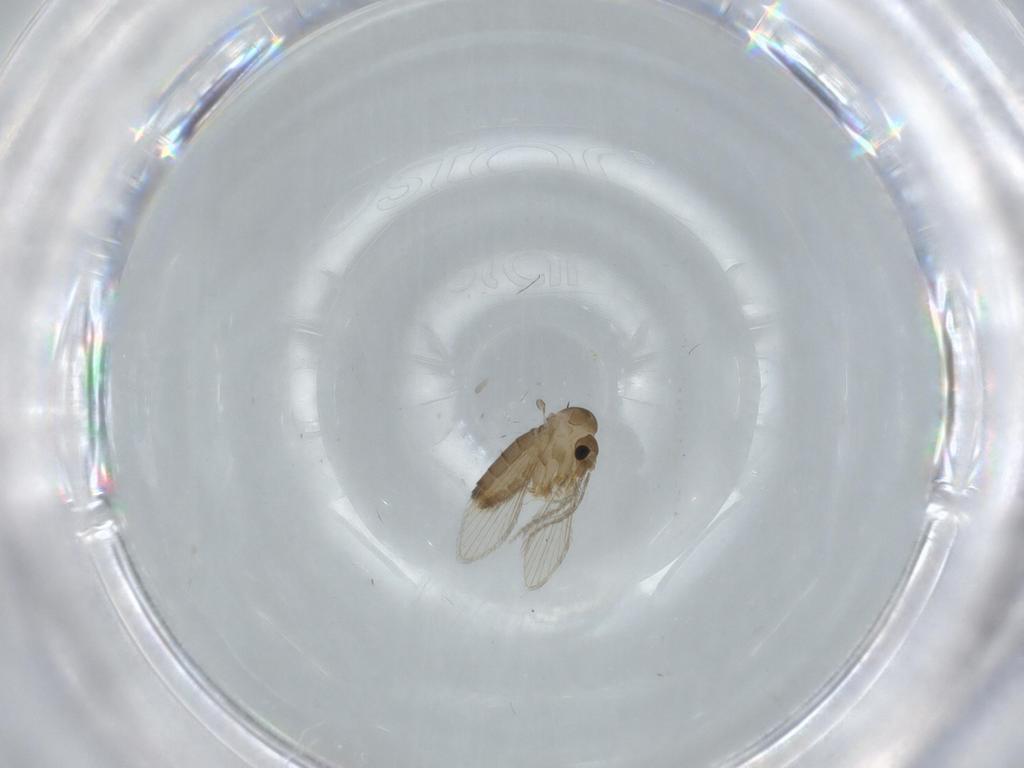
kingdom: Animalia
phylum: Arthropoda
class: Insecta
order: Diptera
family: Psychodidae
